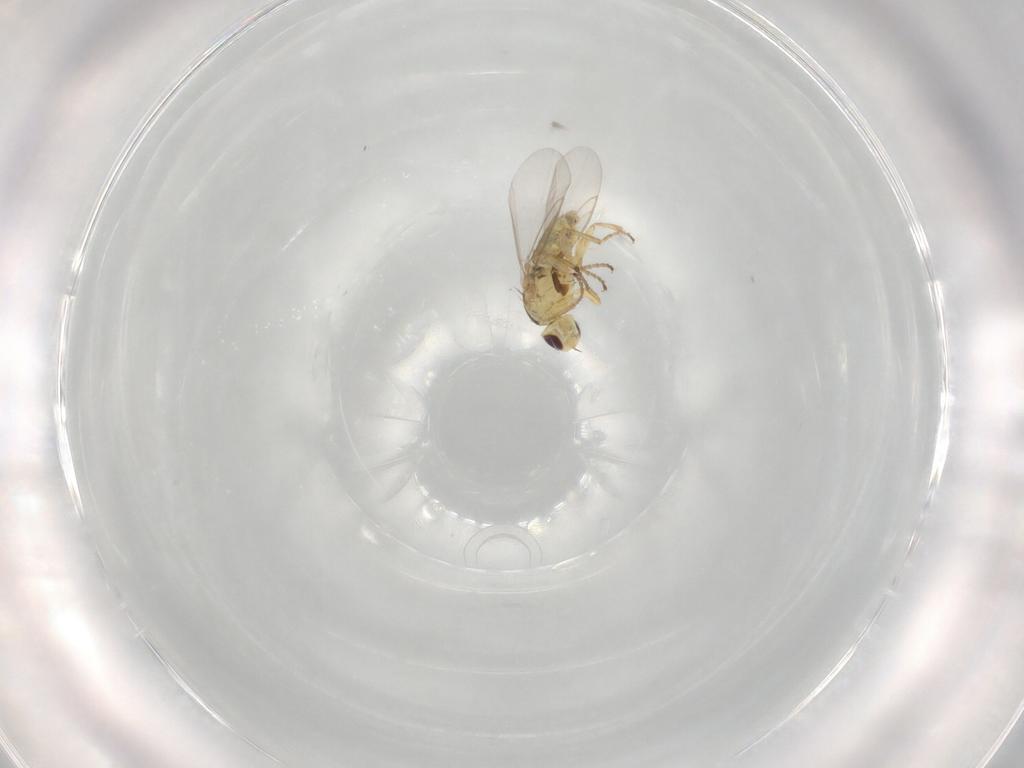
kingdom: Animalia
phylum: Arthropoda
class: Insecta
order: Diptera
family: Agromyzidae
